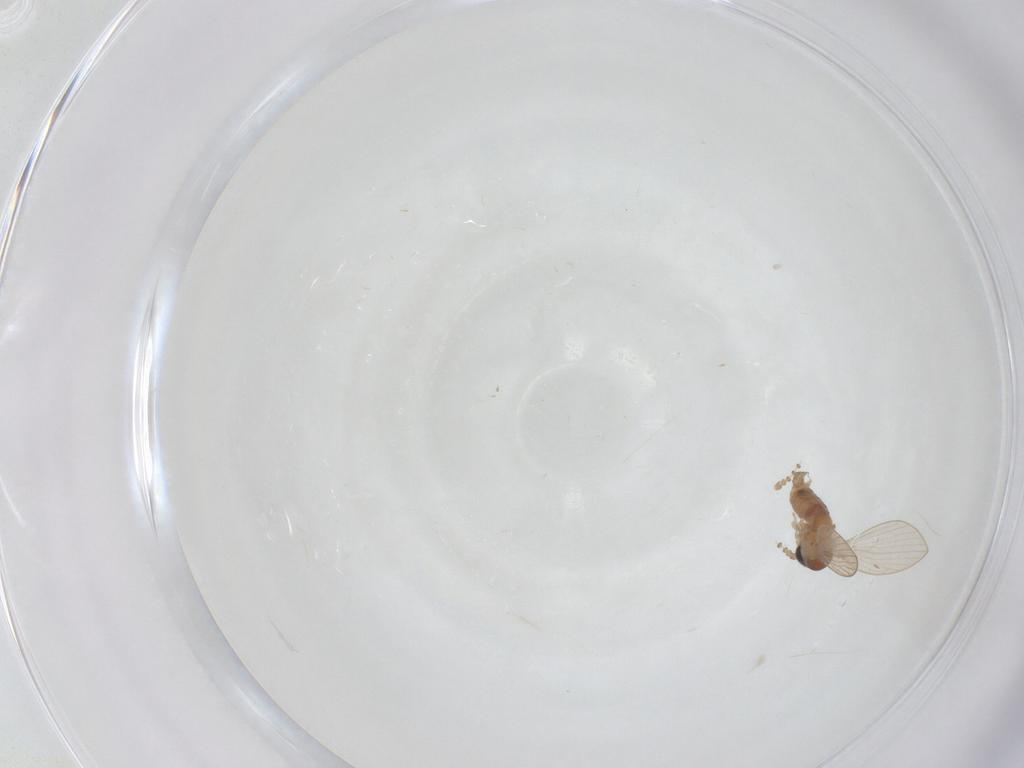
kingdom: Animalia
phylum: Arthropoda
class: Insecta
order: Diptera
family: Psychodidae
